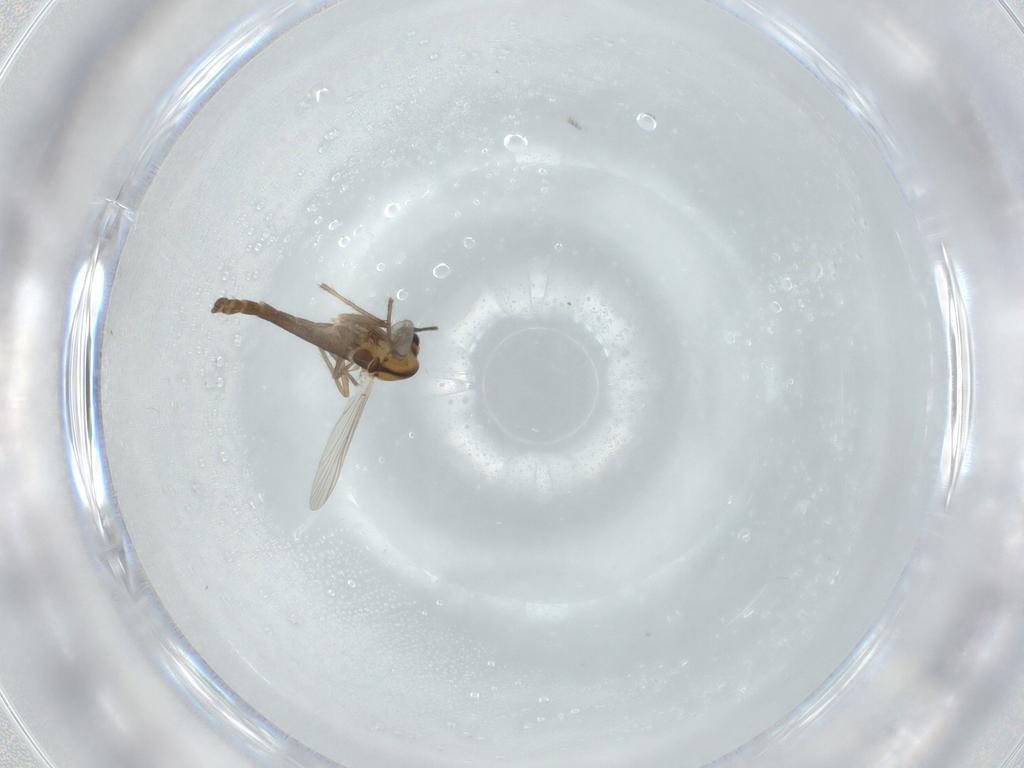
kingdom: Animalia
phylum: Arthropoda
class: Insecta
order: Diptera
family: Chironomidae
